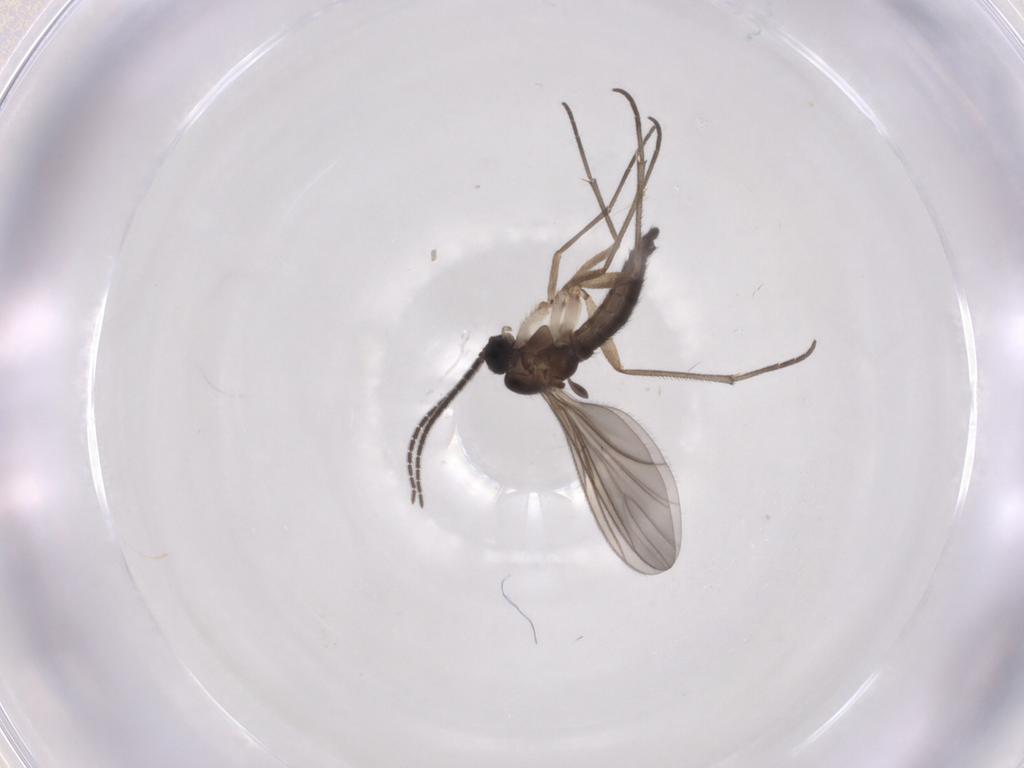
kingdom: Animalia
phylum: Arthropoda
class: Insecta
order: Diptera
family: Sciaridae
